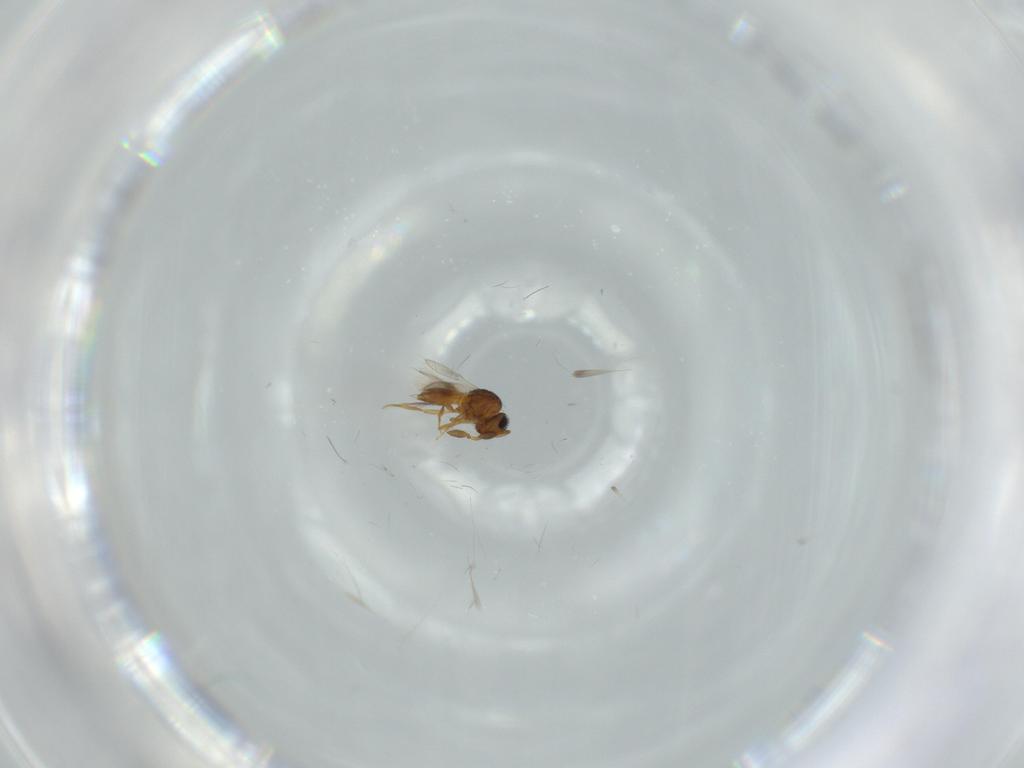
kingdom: Animalia
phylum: Arthropoda
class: Insecta
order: Hymenoptera
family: Scelionidae
